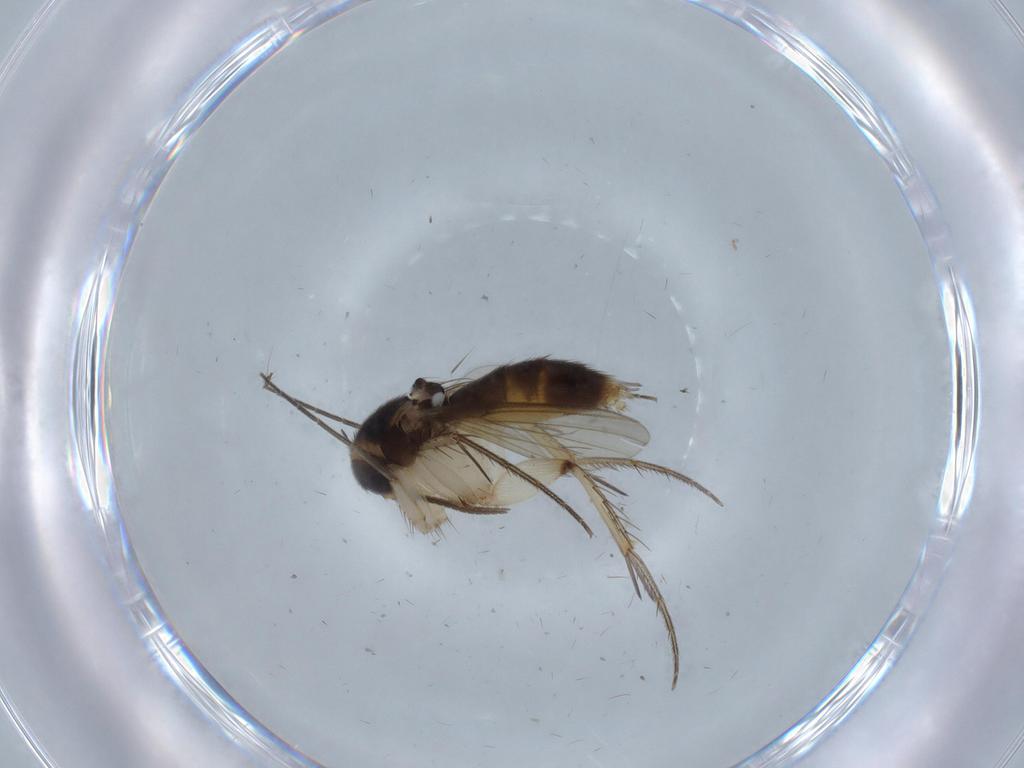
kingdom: Animalia
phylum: Arthropoda
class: Insecta
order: Diptera
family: Chironomidae
